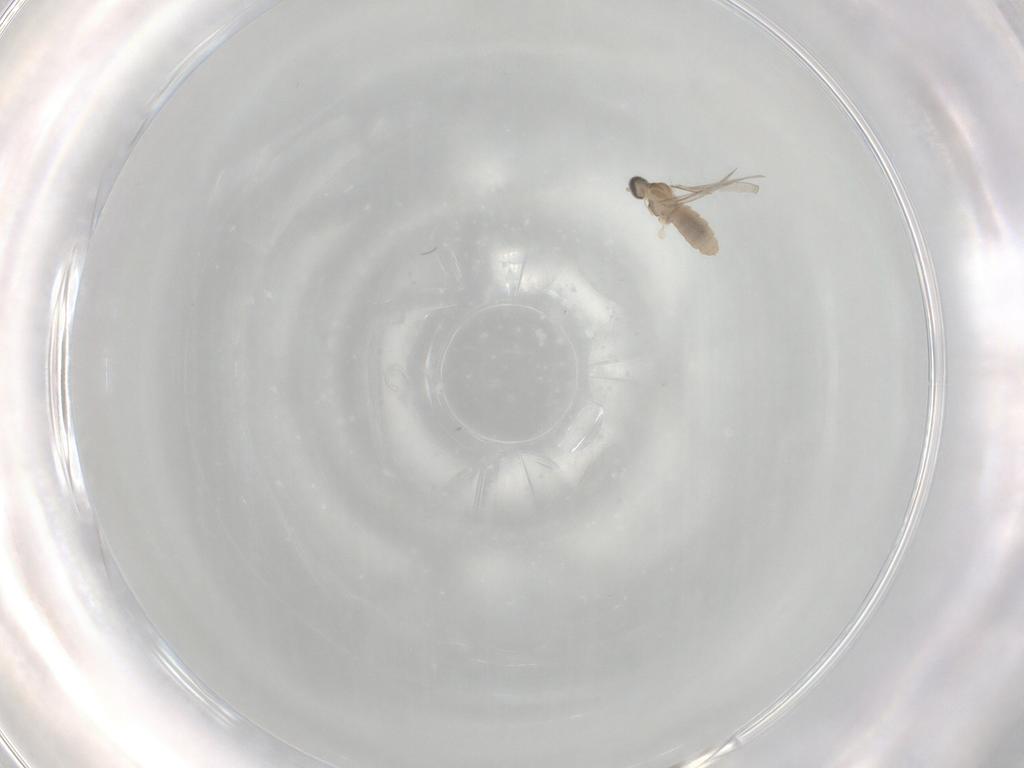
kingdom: Animalia
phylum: Arthropoda
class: Insecta
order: Diptera
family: Cecidomyiidae
